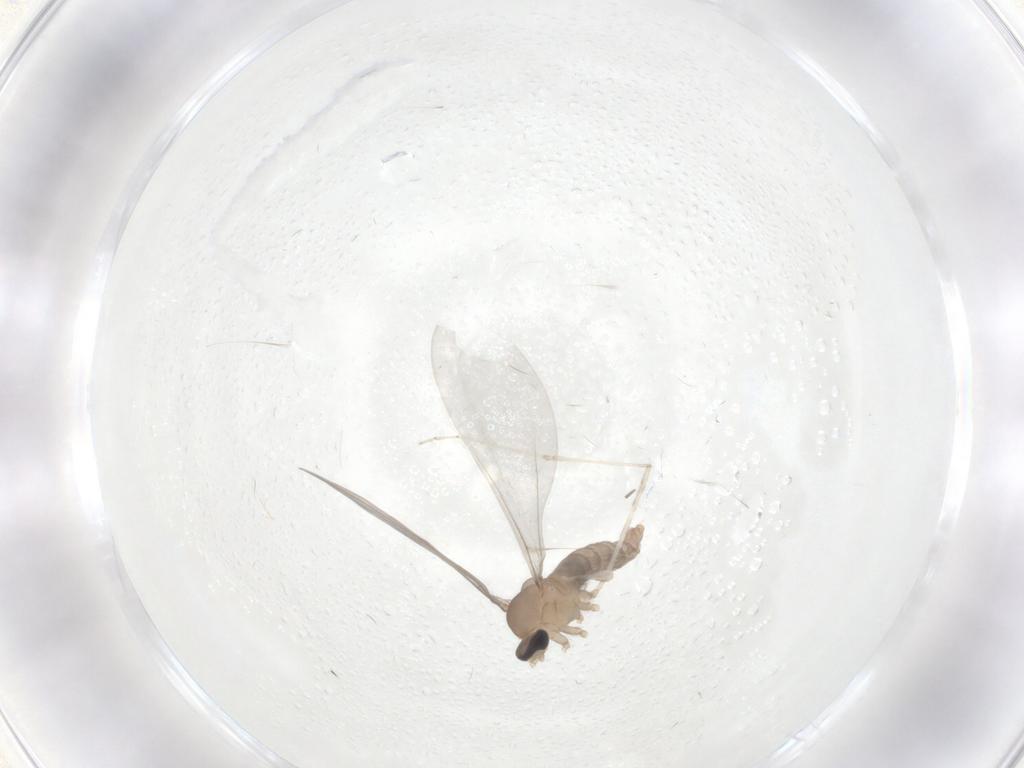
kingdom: Animalia
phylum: Arthropoda
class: Insecta
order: Diptera
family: Cecidomyiidae
